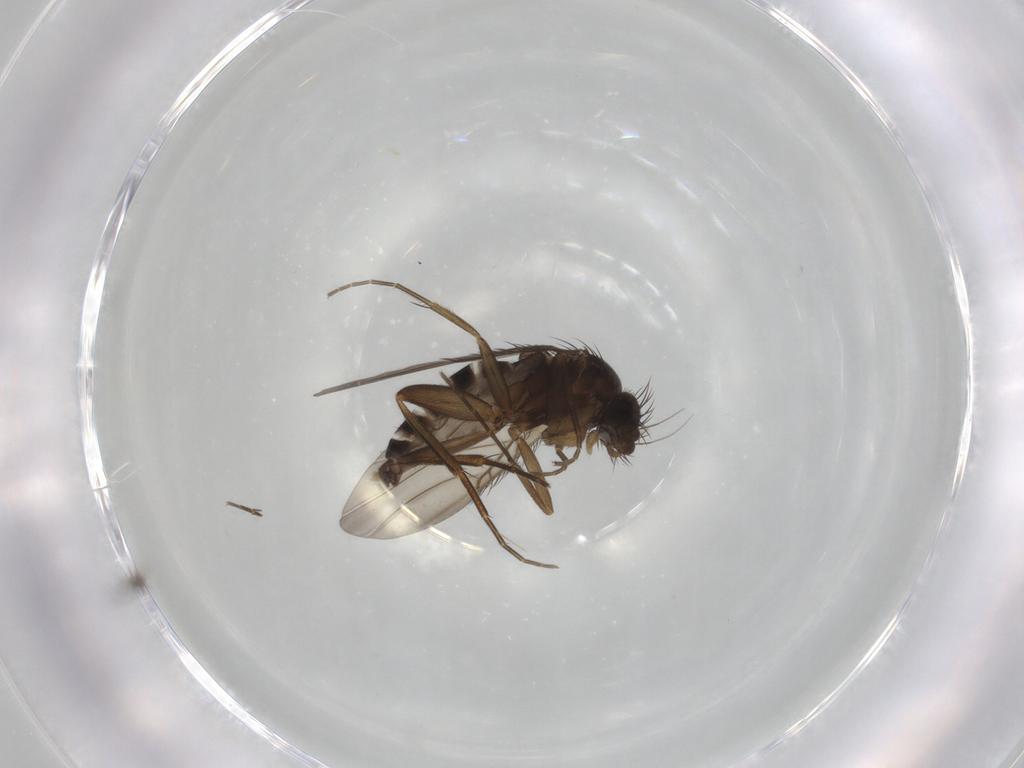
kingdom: Animalia
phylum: Arthropoda
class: Insecta
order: Diptera
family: Phoridae
